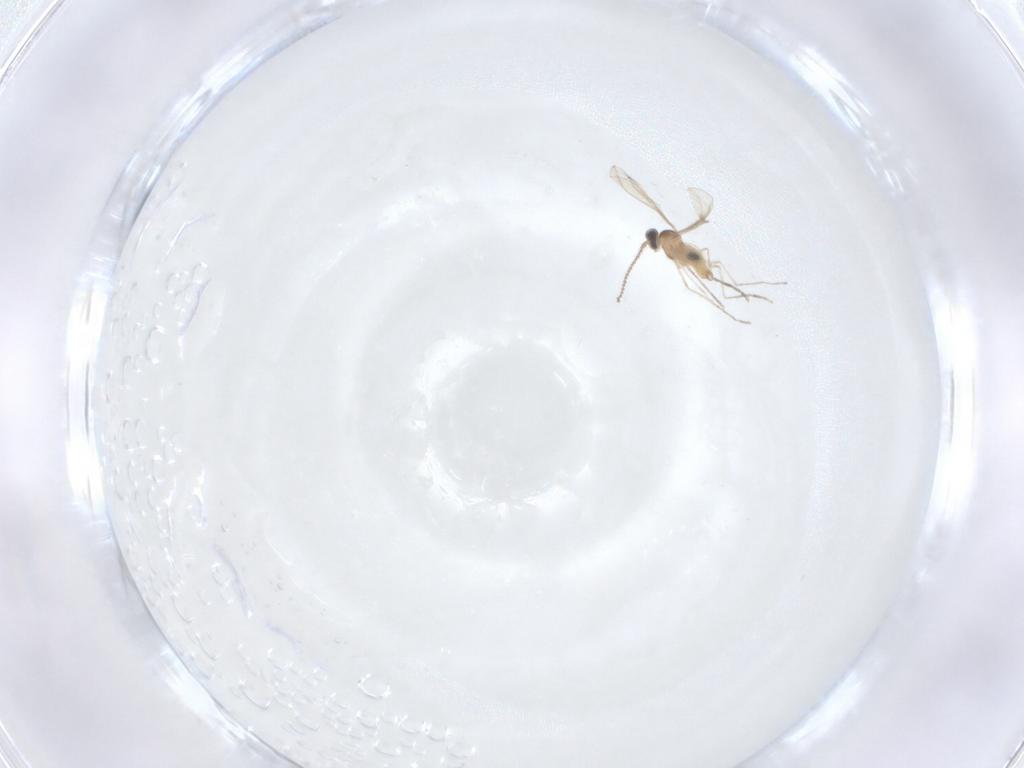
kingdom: Animalia
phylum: Arthropoda
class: Insecta
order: Diptera
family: Cecidomyiidae
